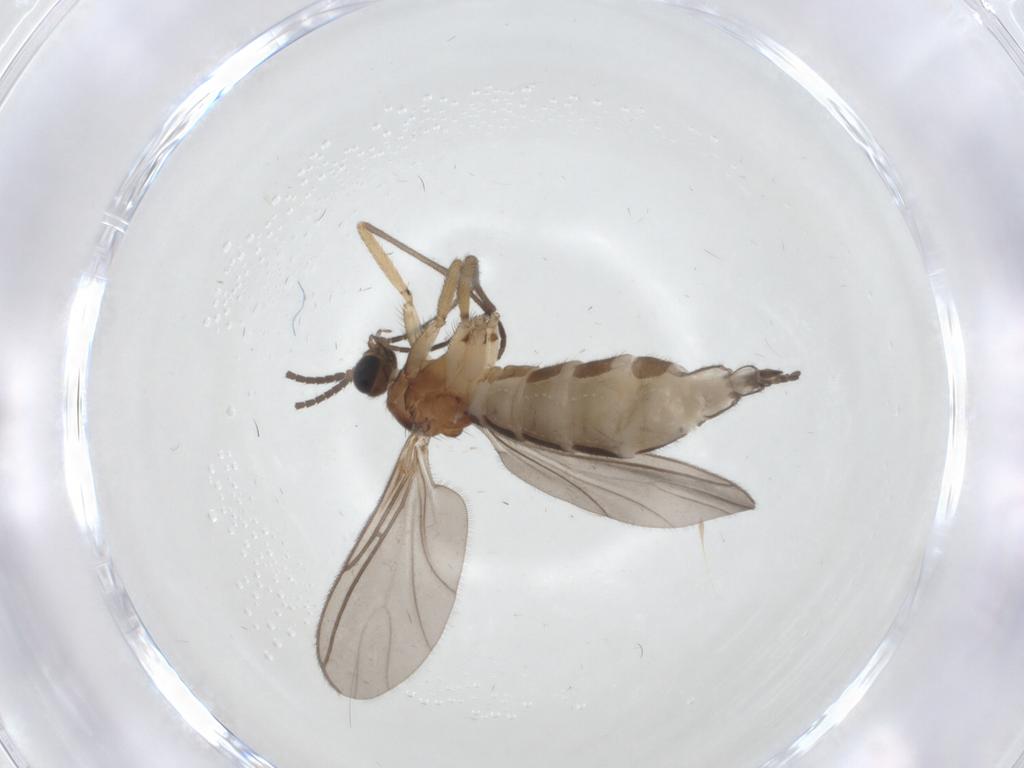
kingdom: Animalia
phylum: Arthropoda
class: Insecta
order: Diptera
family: Sciaridae
